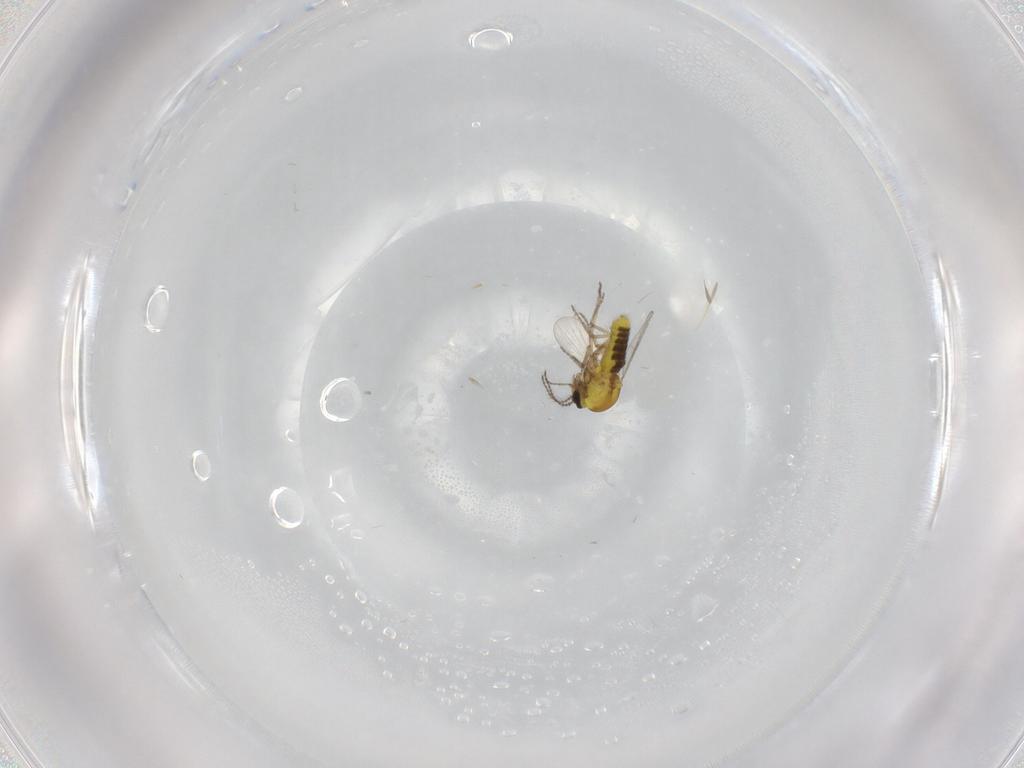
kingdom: Animalia
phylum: Arthropoda
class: Insecta
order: Diptera
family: Ceratopogonidae
